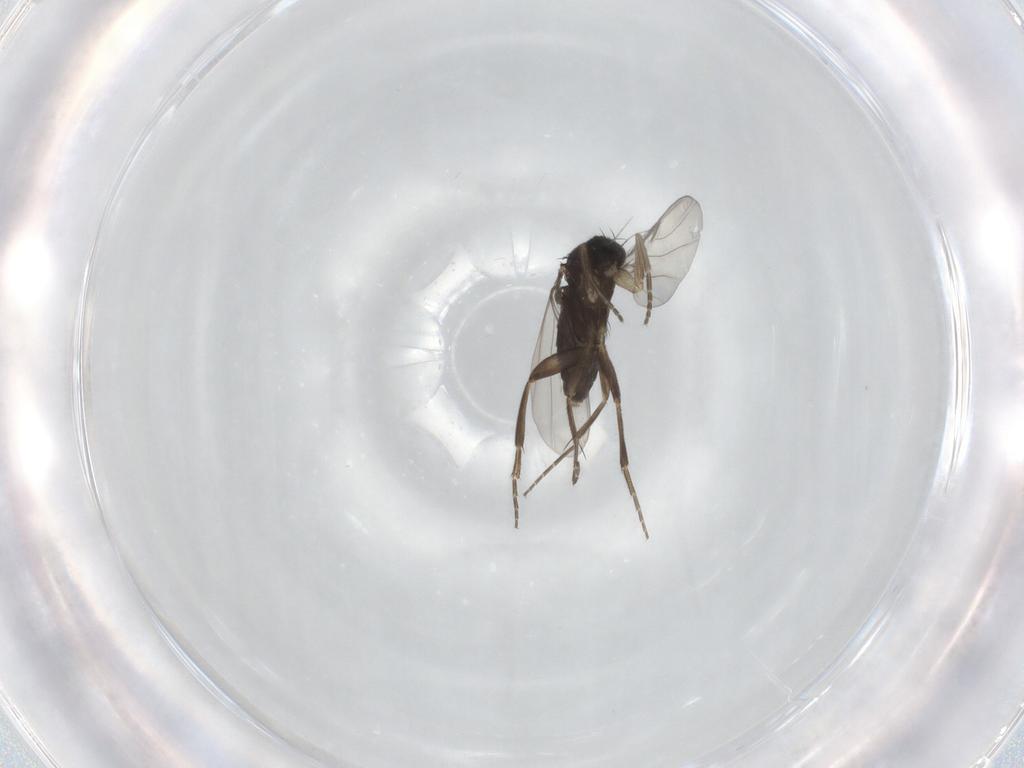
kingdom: Animalia
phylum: Arthropoda
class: Insecta
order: Diptera
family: Phoridae
